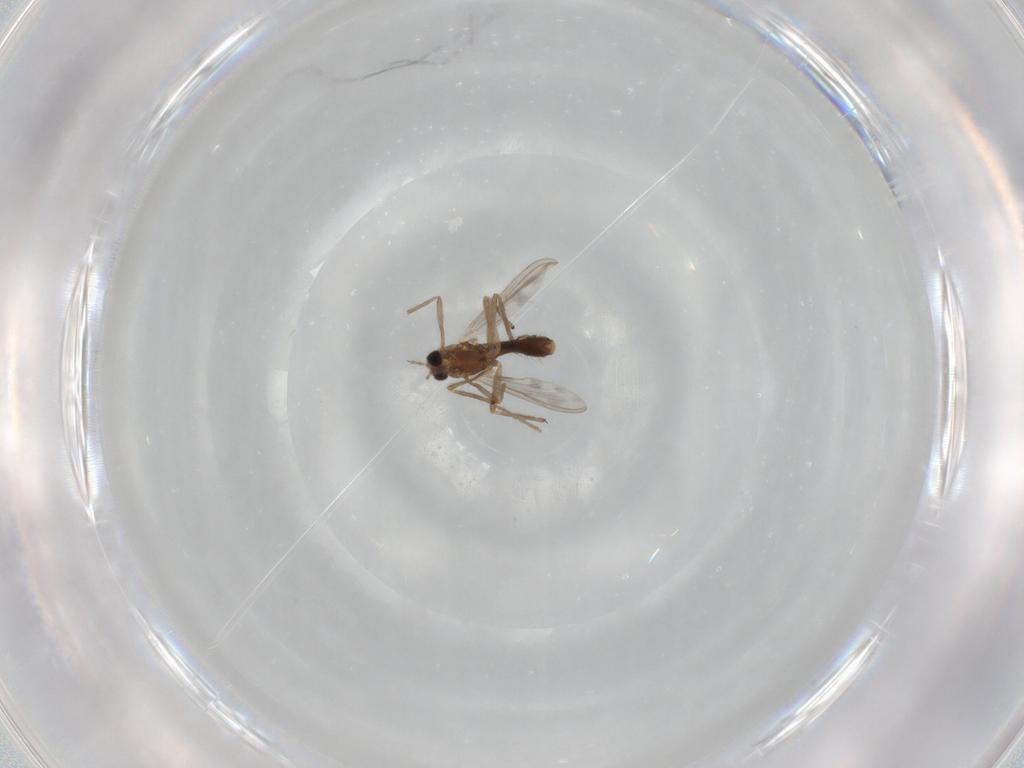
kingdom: Animalia
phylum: Arthropoda
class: Insecta
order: Diptera
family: Chironomidae
